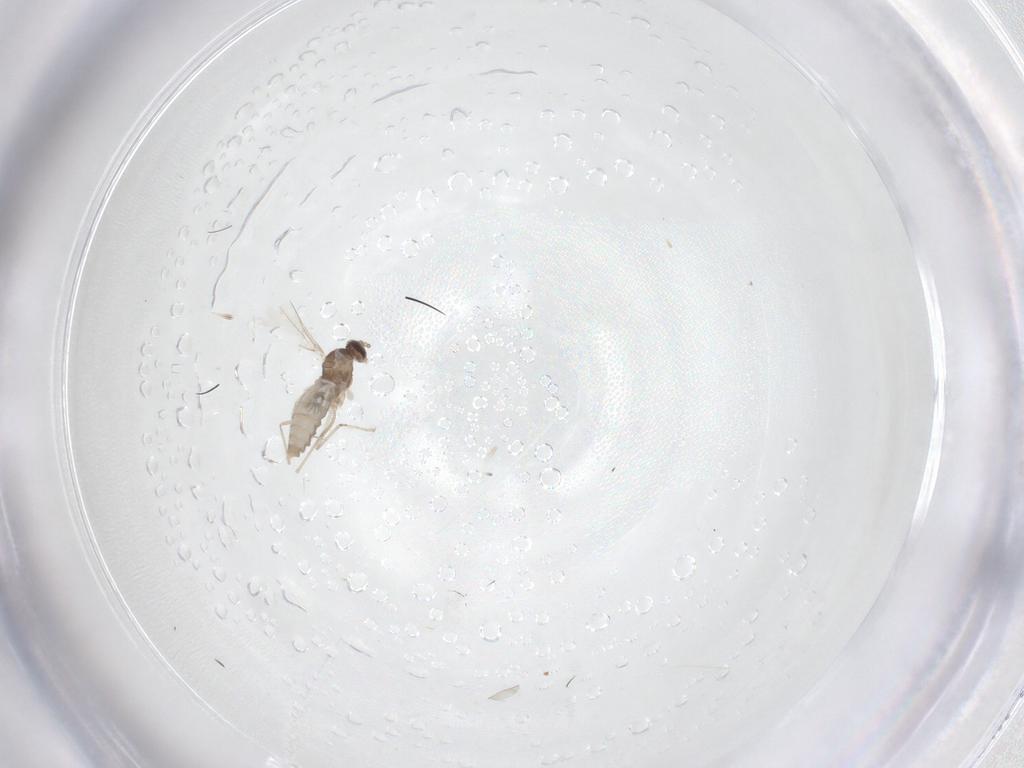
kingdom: Animalia
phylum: Arthropoda
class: Insecta
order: Diptera
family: Cecidomyiidae
